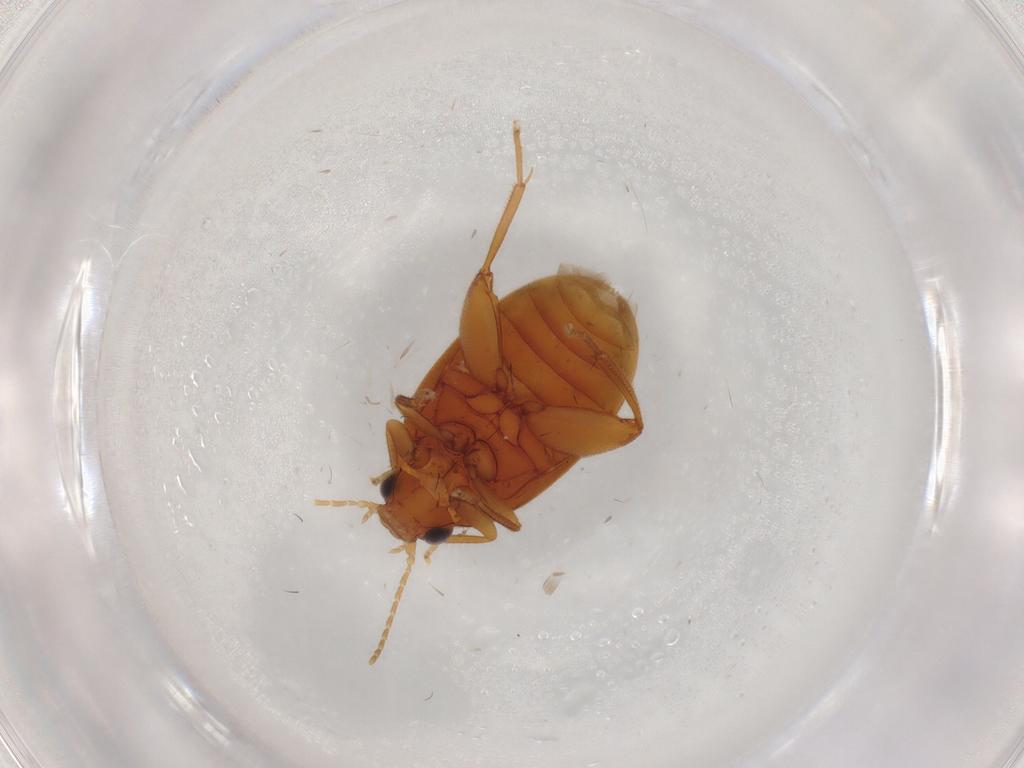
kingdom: Animalia
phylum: Arthropoda
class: Insecta
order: Coleoptera
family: Scirtidae
